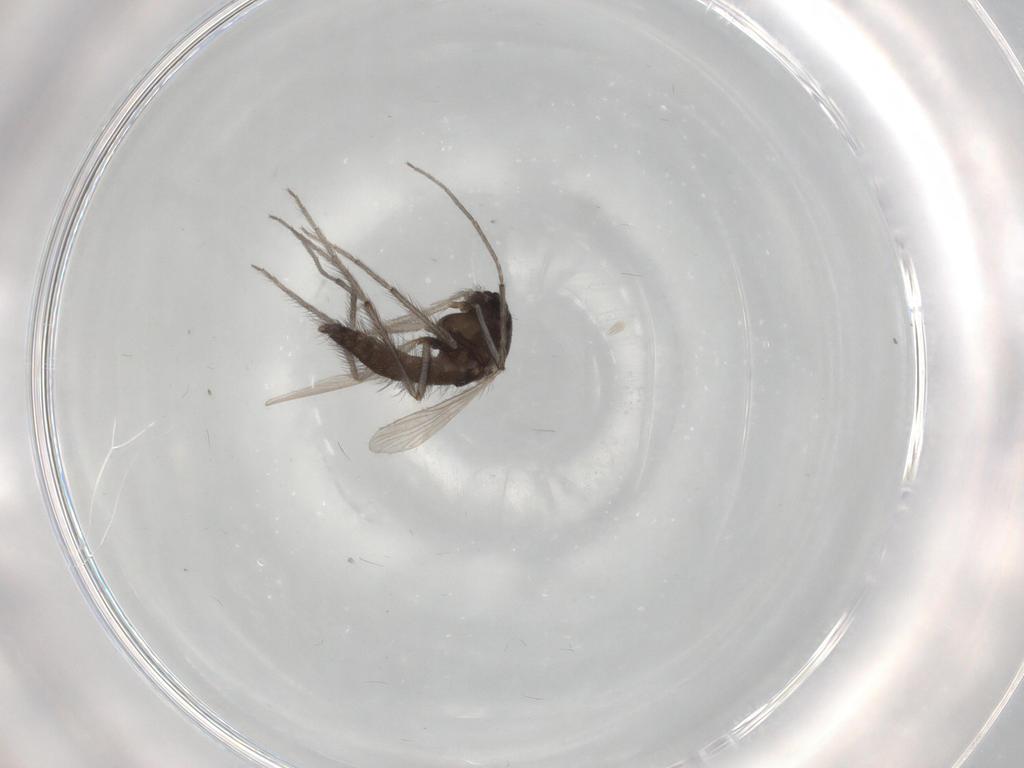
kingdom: Animalia
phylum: Arthropoda
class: Insecta
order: Diptera
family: Chironomidae
